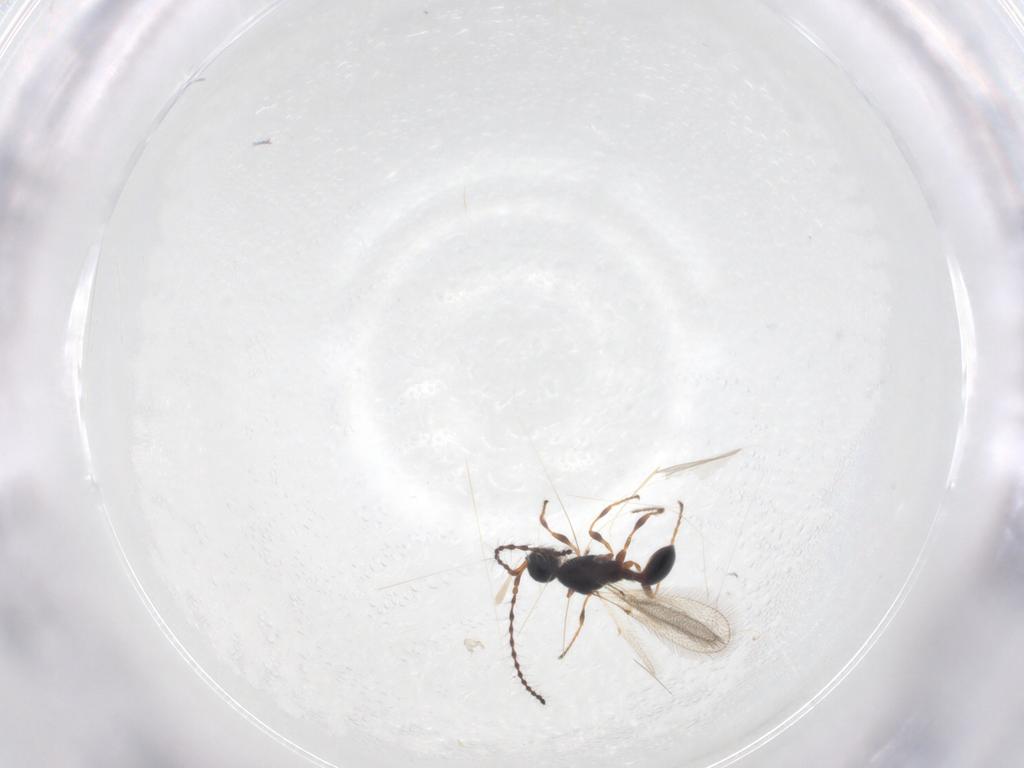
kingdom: Animalia
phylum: Arthropoda
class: Insecta
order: Hymenoptera
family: Diapriidae
